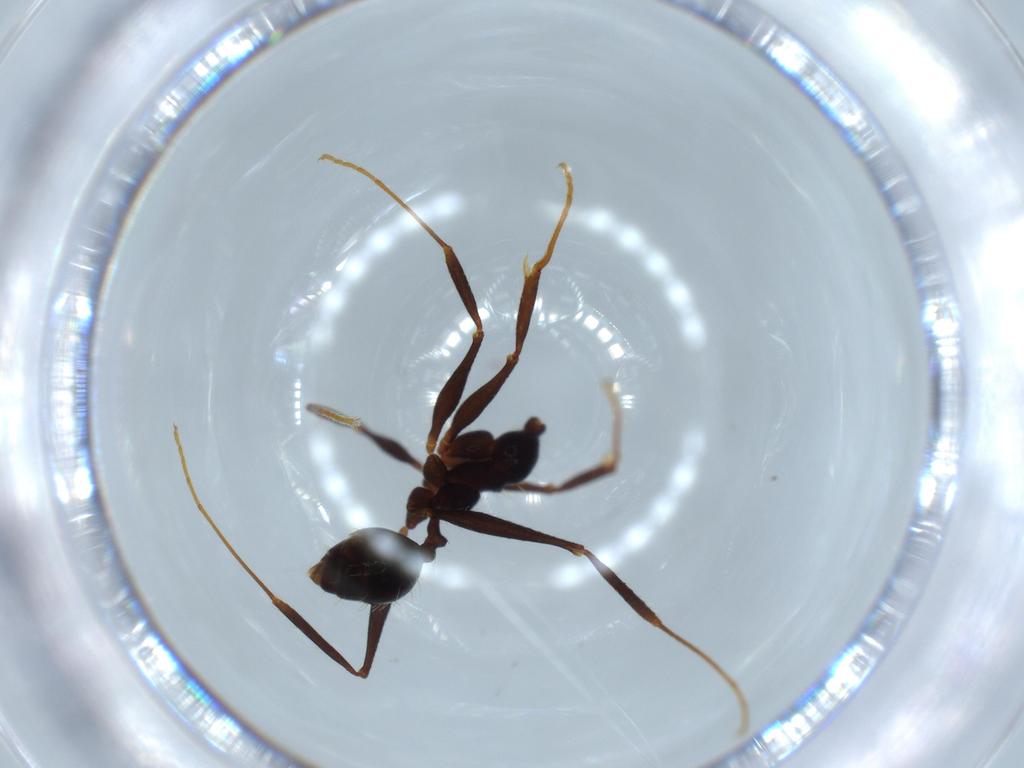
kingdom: Animalia
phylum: Arthropoda
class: Insecta
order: Hymenoptera
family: Formicidae
